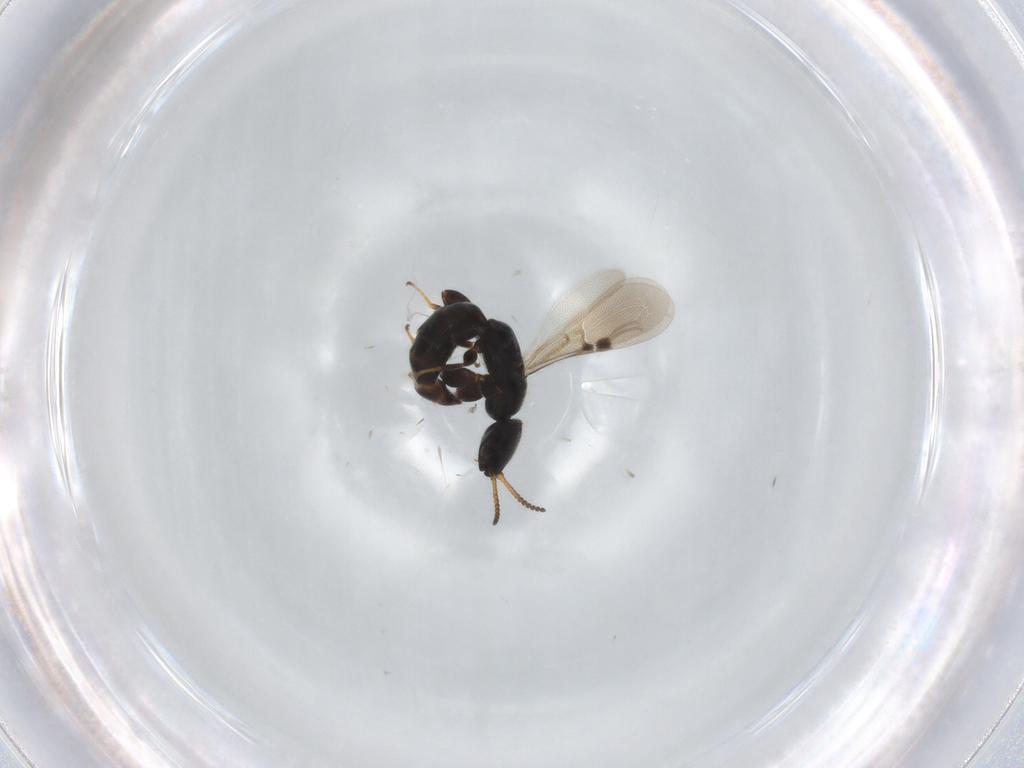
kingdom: Animalia
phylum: Arthropoda
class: Insecta
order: Hymenoptera
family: Bethylidae
